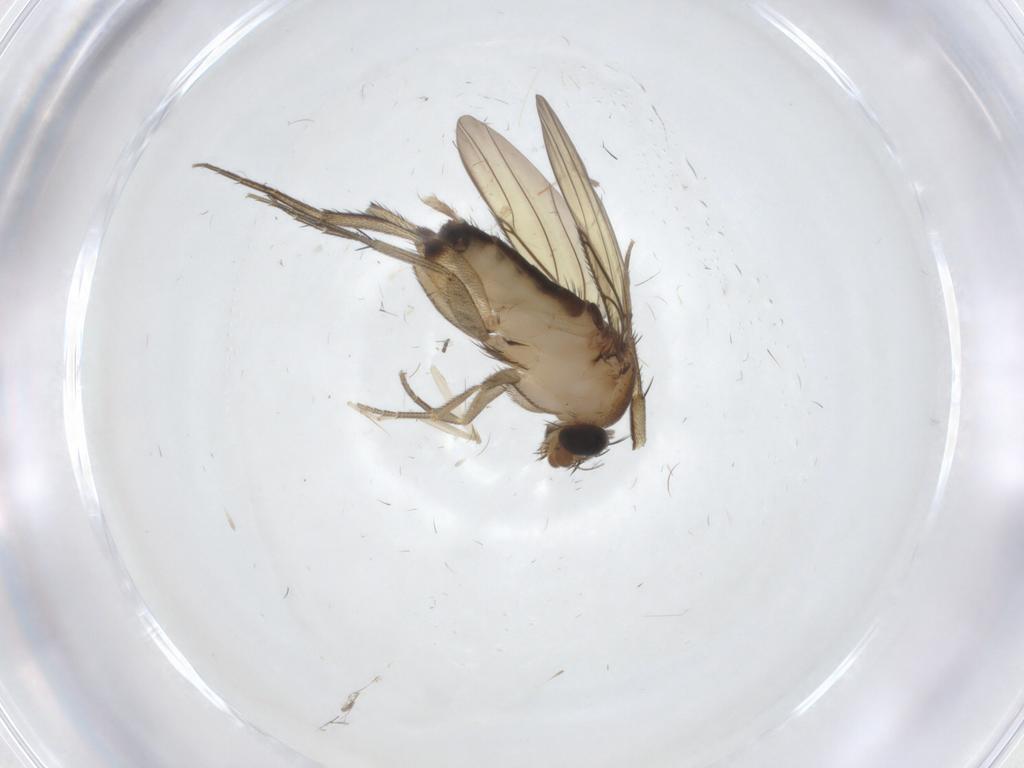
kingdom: Animalia
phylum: Arthropoda
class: Insecta
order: Diptera
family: Phoridae
